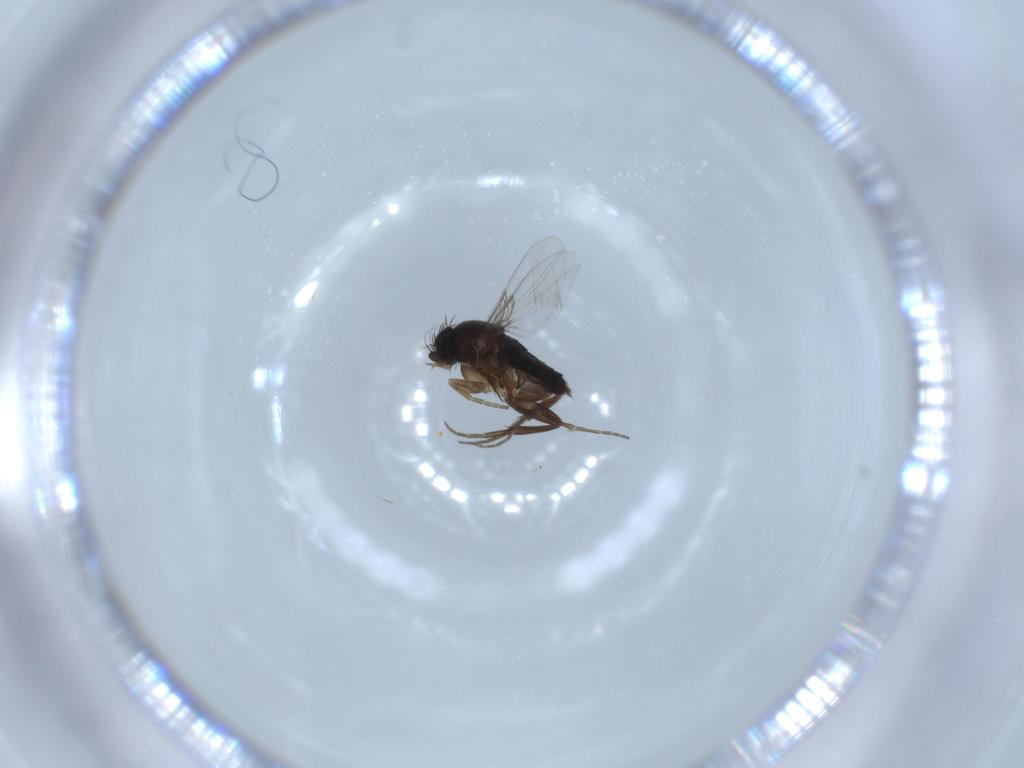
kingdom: Animalia
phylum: Arthropoda
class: Insecta
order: Diptera
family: Phoridae
